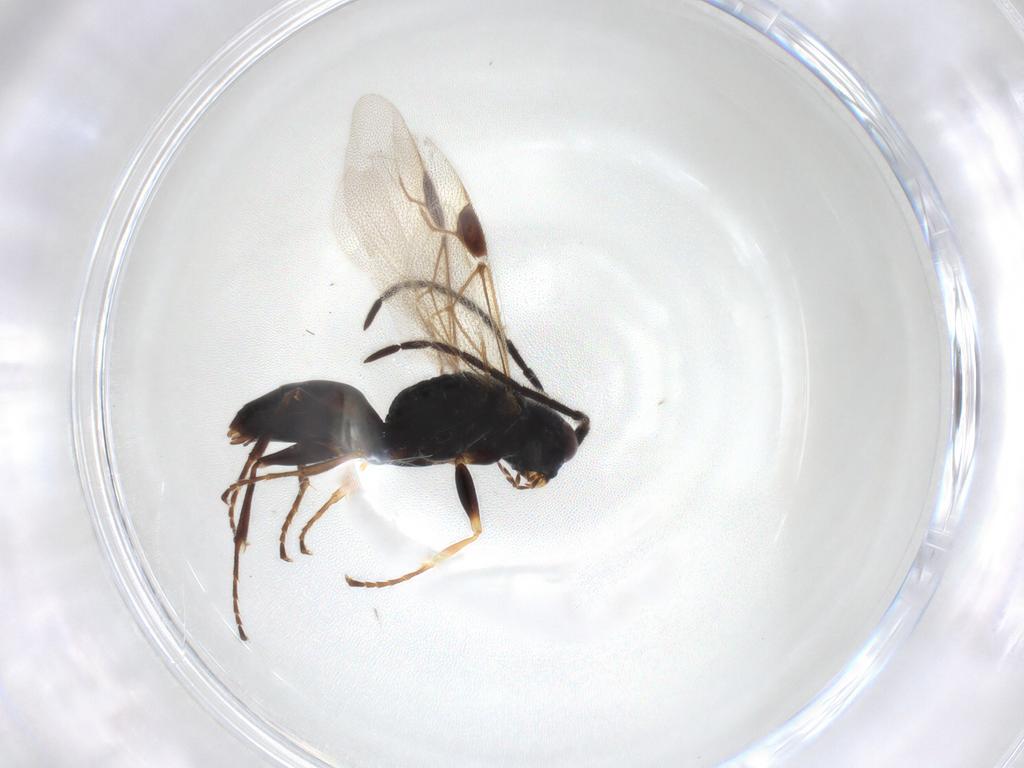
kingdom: Animalia
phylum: Arthropoda
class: Insecta
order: Hymenoptera
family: Dryinidae
